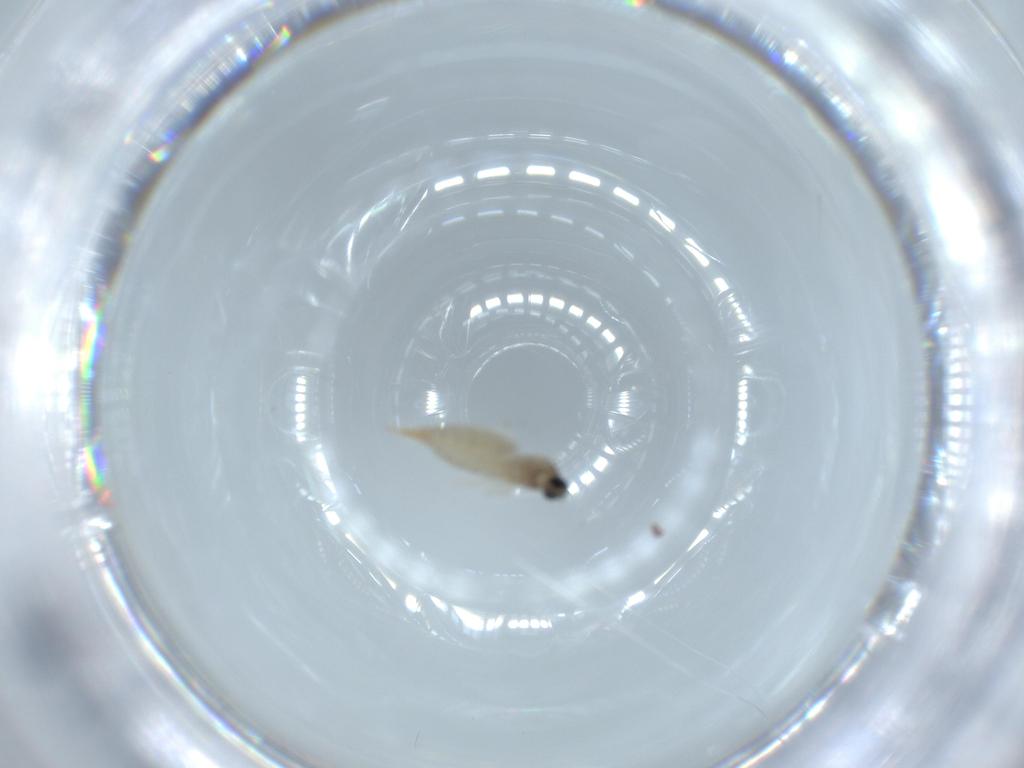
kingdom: Animalia
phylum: Arthropoda
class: Insecta
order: Diptera
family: Cecidomyiidae
